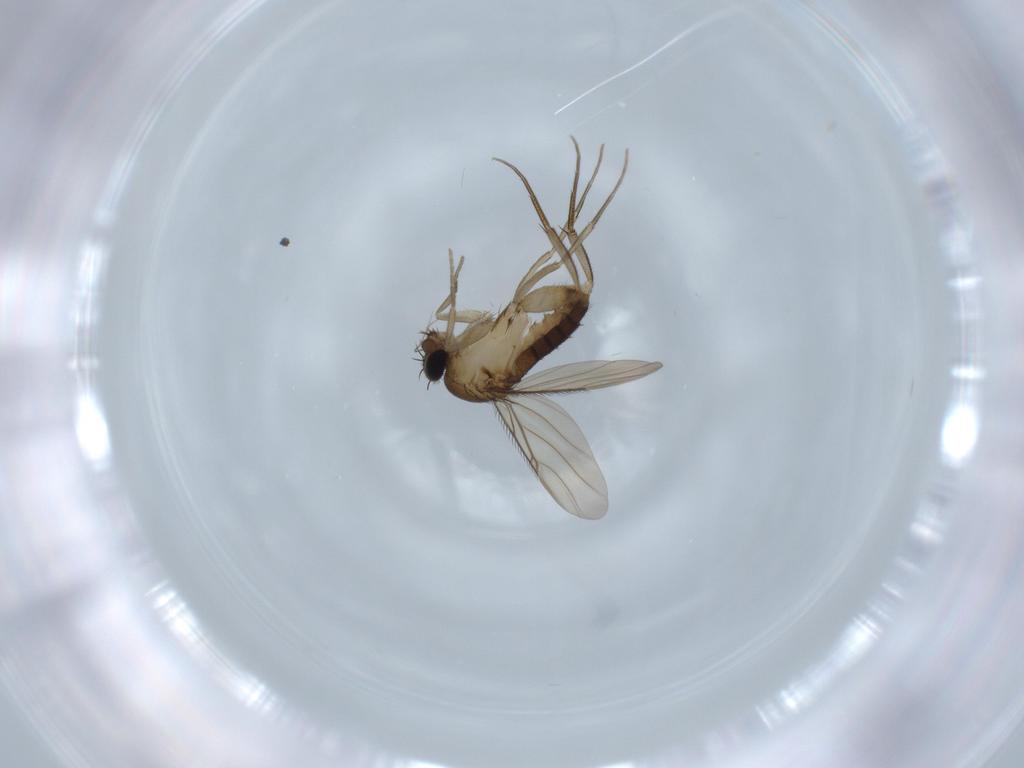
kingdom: Animalia
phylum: Arthropoda
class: Insecta
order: Diptera
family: Phoridae
